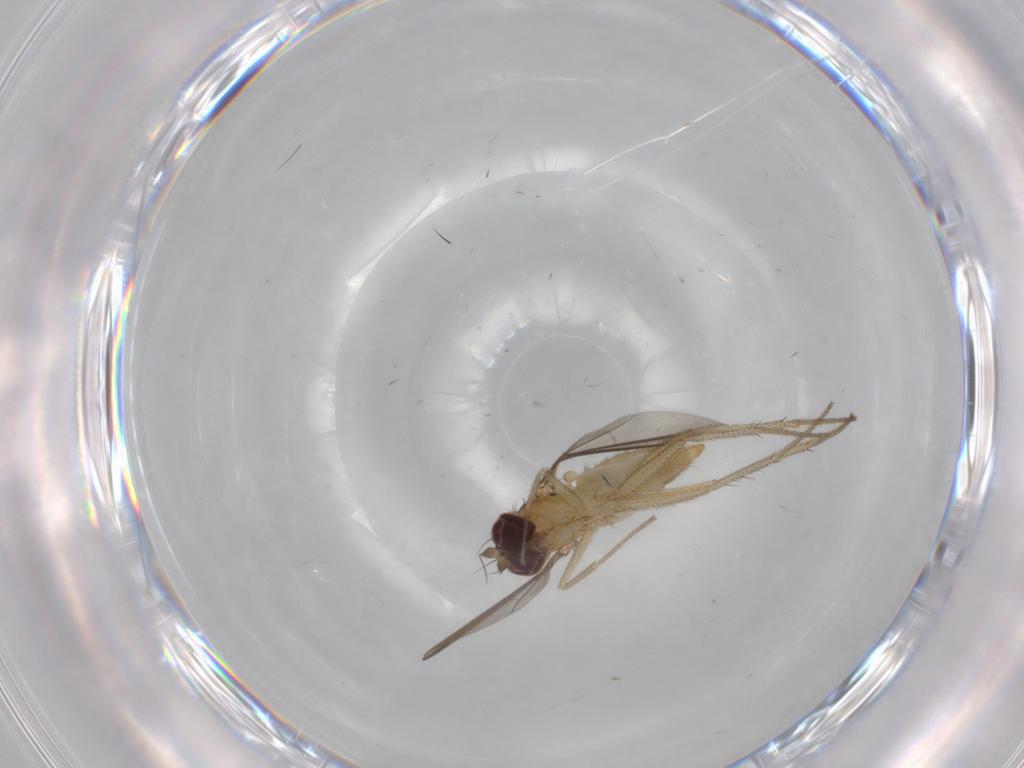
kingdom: Animalia
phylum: Arthropoda
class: Insecta
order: Diptera
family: Dolichopodidae
